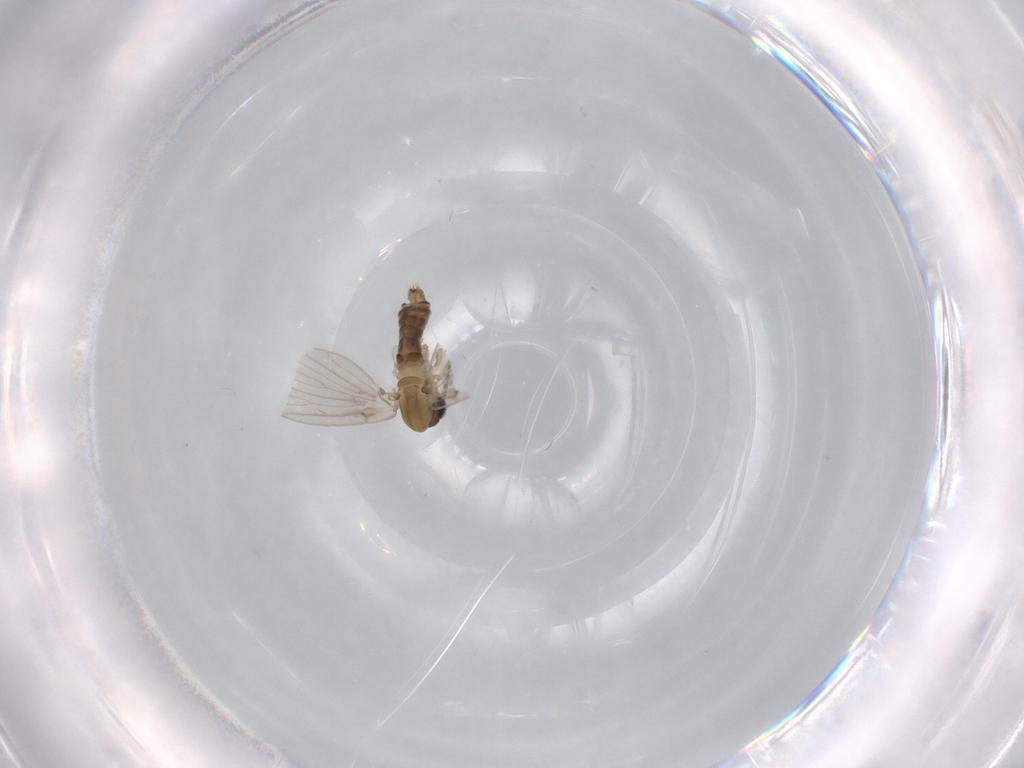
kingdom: Animalia
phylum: Arthropoda
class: Insecta
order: Diptera
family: Psychodidae
